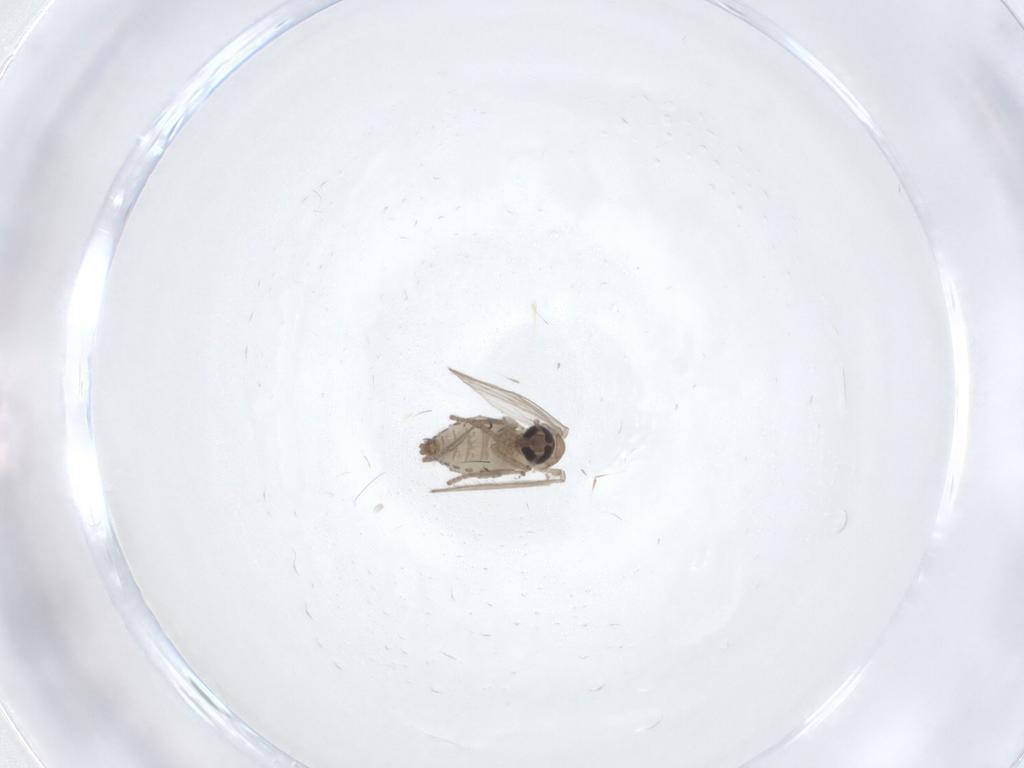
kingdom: Animalia
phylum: Arthropoda
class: Insecta
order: Diptera
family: Psychodidae
